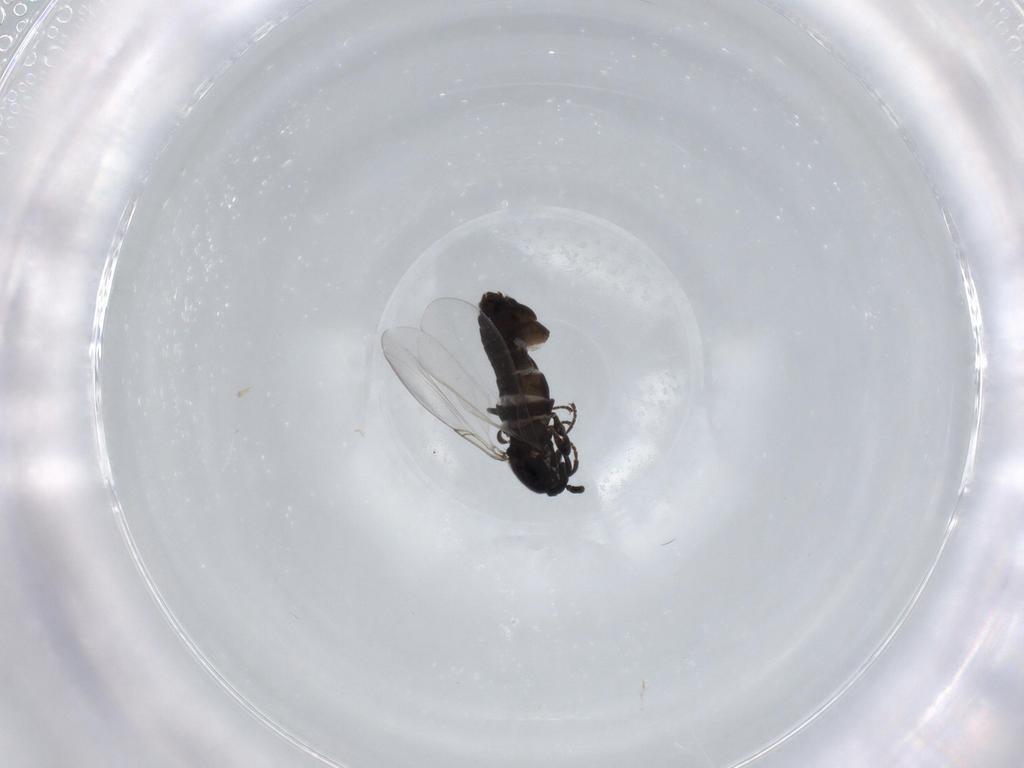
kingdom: Animalia
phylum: Arthropoda
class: Insecta
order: Diptera
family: Scatopsidae
